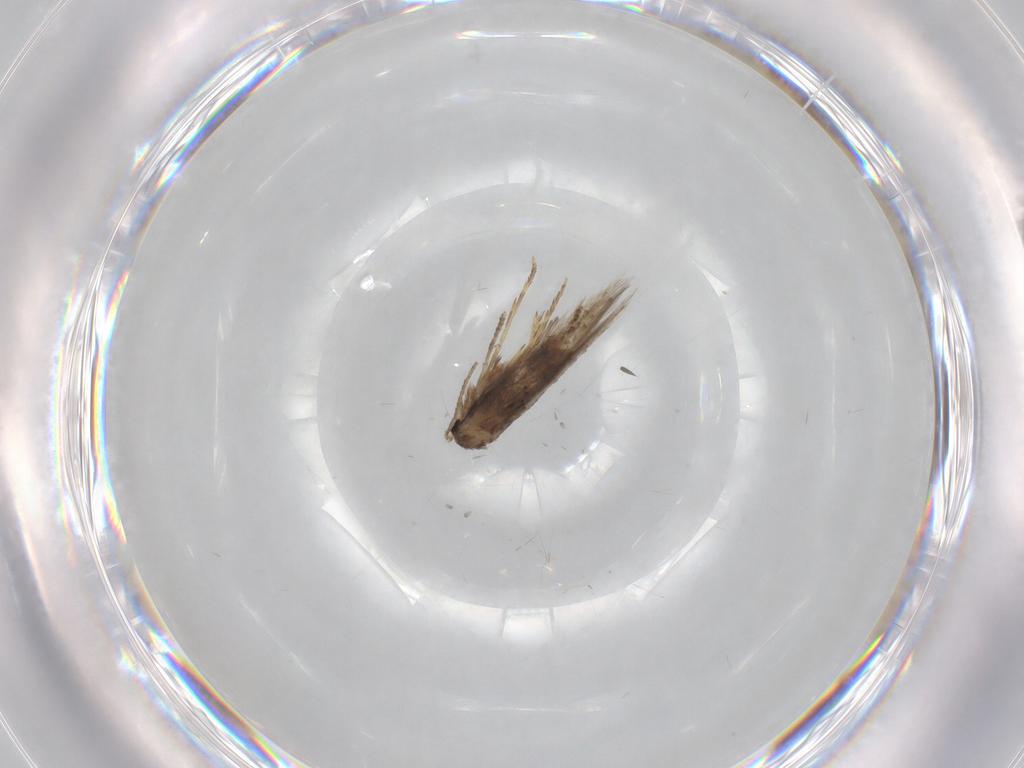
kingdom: Animalia
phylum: Arthropoda
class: Insecta
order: Lepidoptera
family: Nepticulidae
